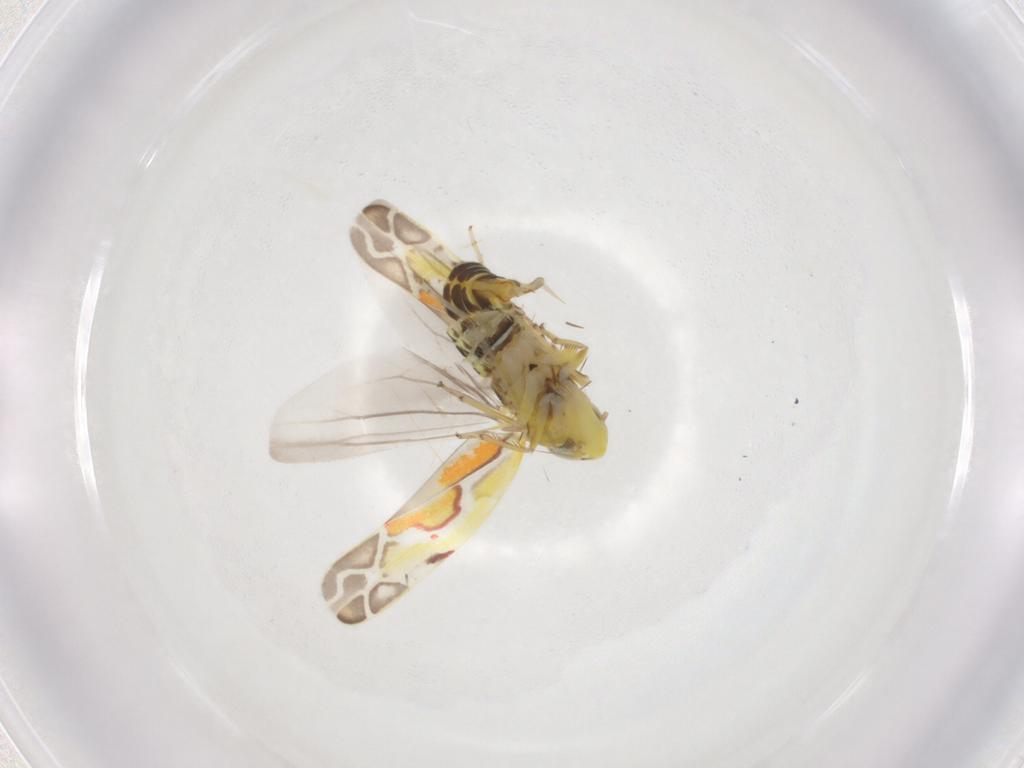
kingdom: Animalia
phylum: Arthropoda
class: Insecta
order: Hemiptera
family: Cicadellidae
